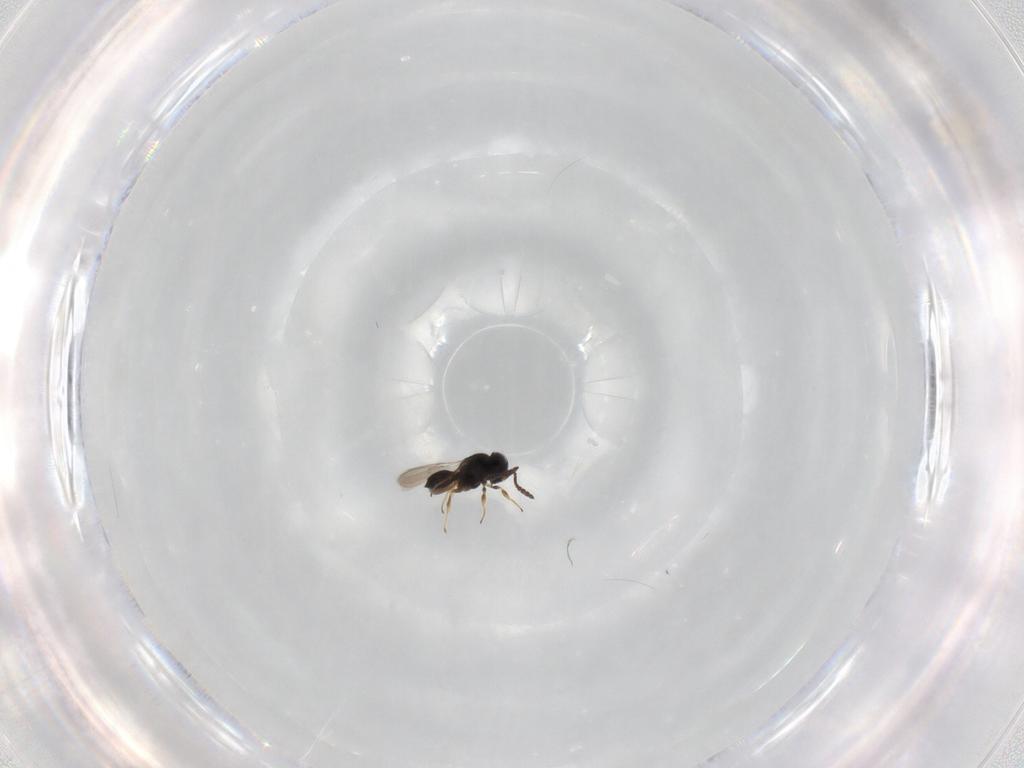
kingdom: Animalia
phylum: Arthropoda
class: Insecta
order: Hymenoptera
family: Scelionidae
